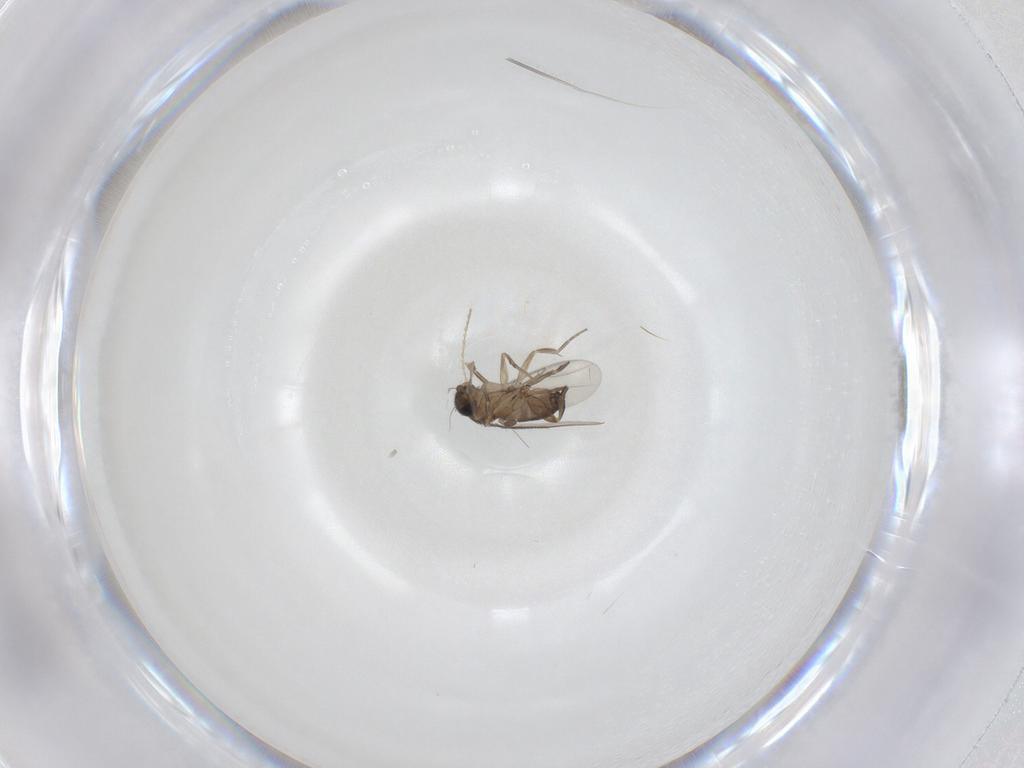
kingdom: Animalia
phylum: Arthropoda
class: Insecta
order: Diptera
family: Phoridae
